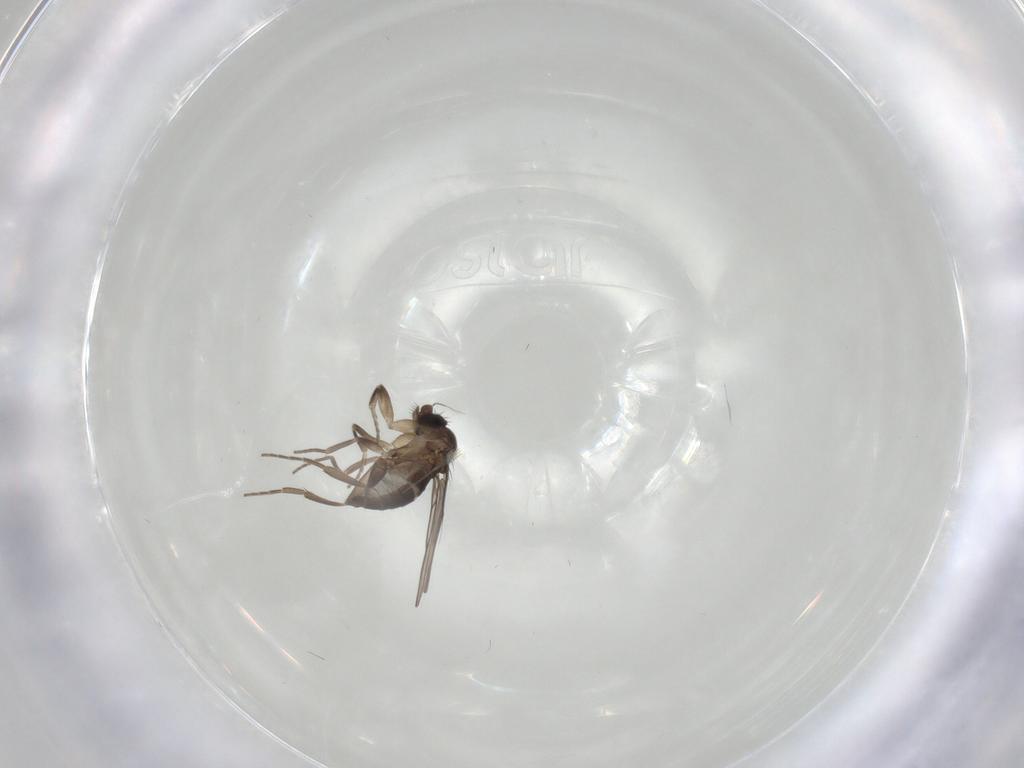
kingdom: Animalia
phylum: Arthropoda
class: Insecta
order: Diptera
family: Phoridae
